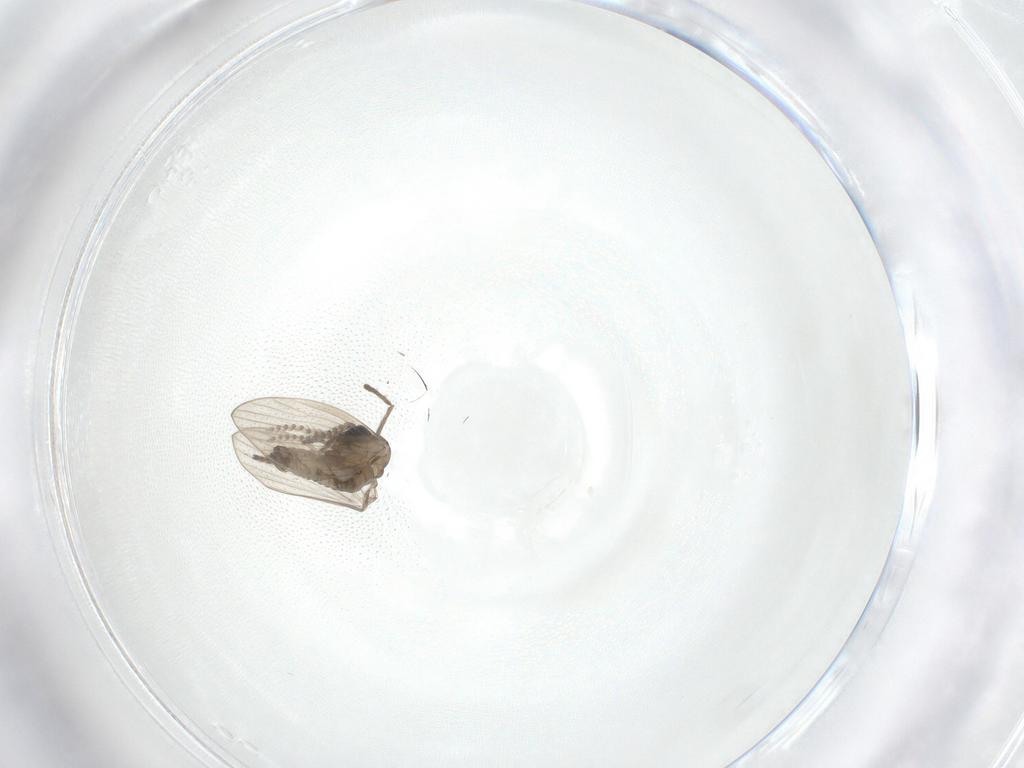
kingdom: Animalia
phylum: Arthropoda
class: Insecta
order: Diptera
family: Psychodidae
